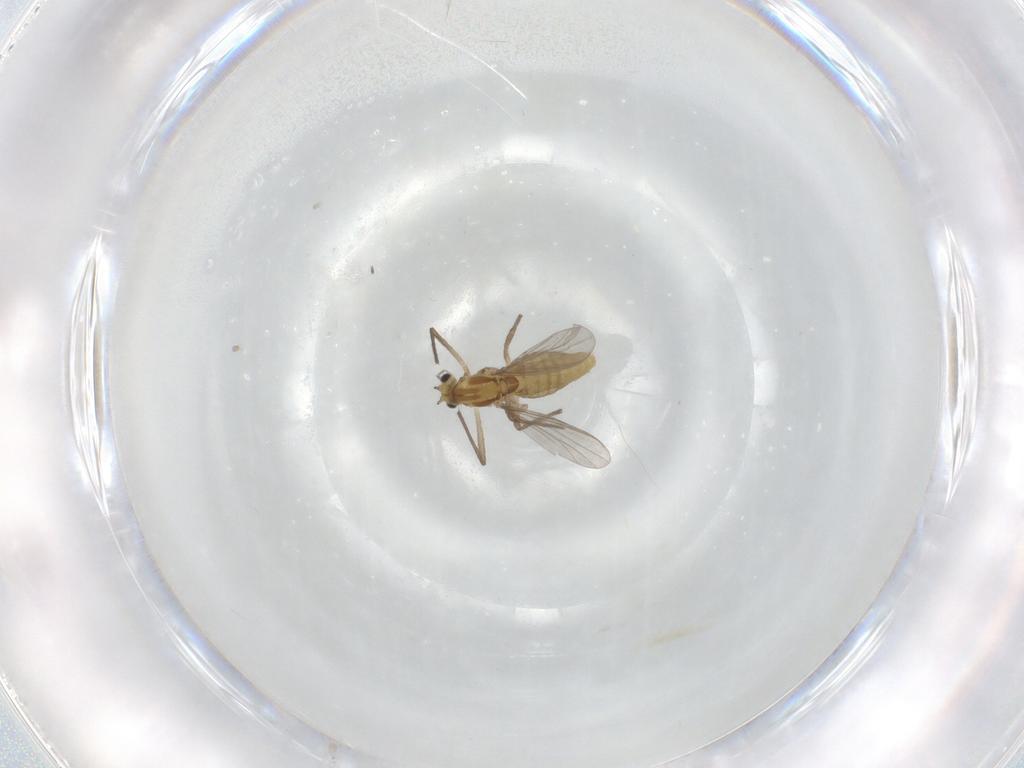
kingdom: Animalia
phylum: Arthropoda
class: Insecta
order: Diptera
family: Chironomidae
